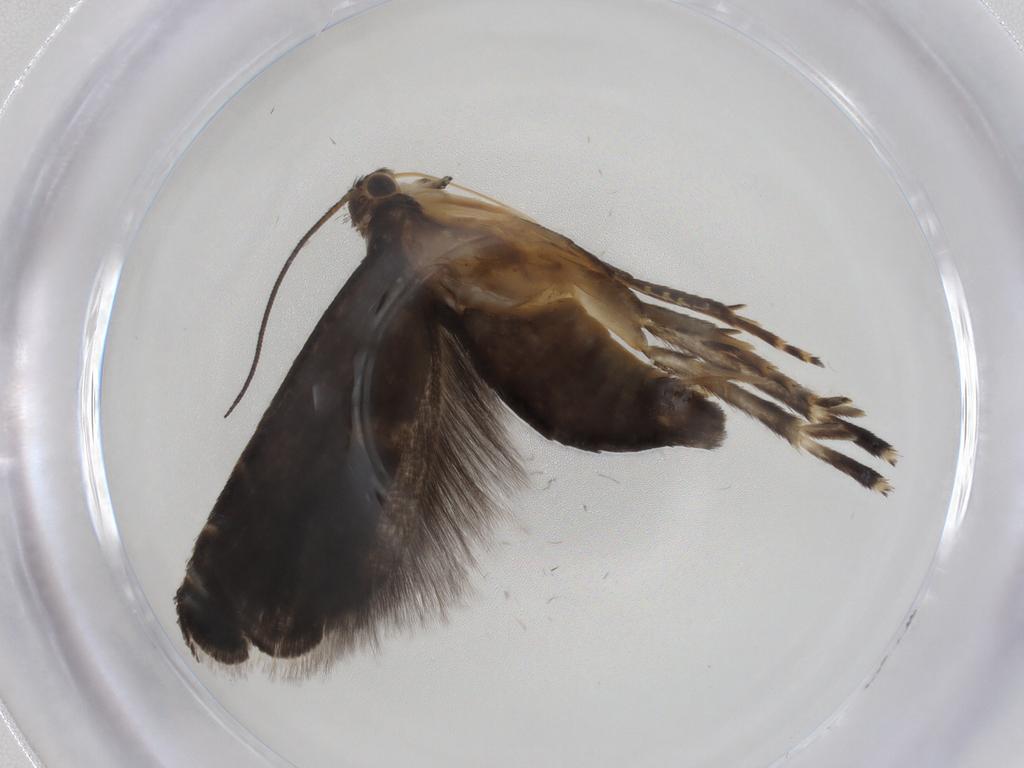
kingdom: Animalia
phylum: Arthropoda
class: Insecta
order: Lepidoptera
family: Glyphipterigidae
